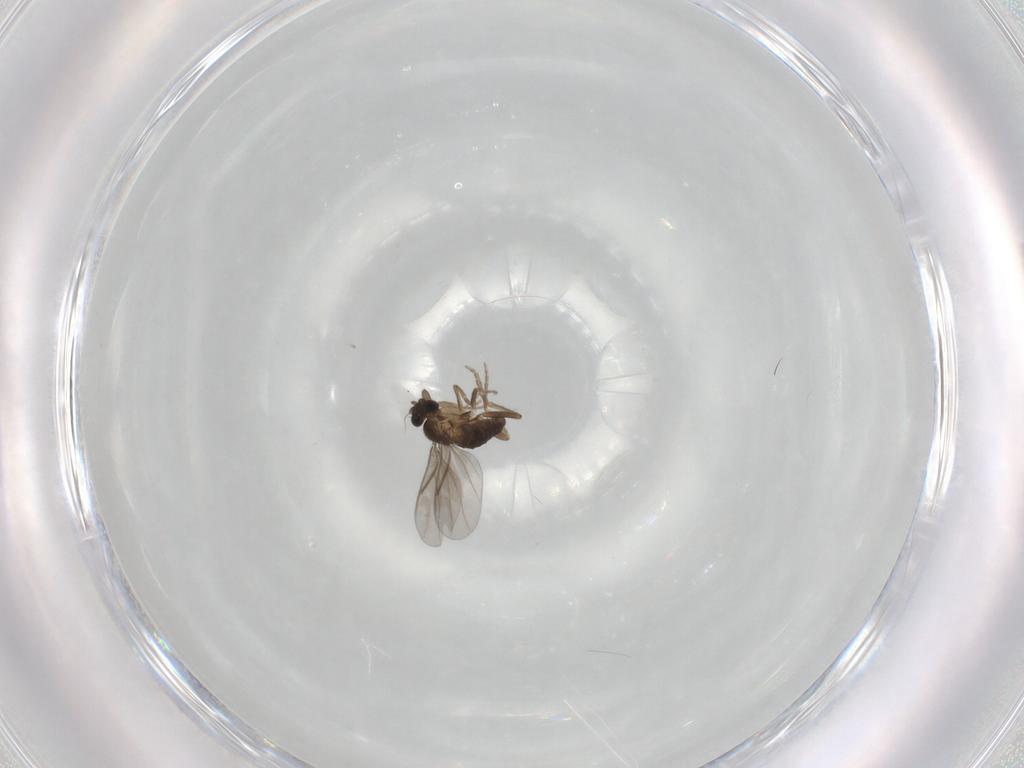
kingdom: Animalia
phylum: Arthropoda
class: Insecta
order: Diptera
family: Phoridae
